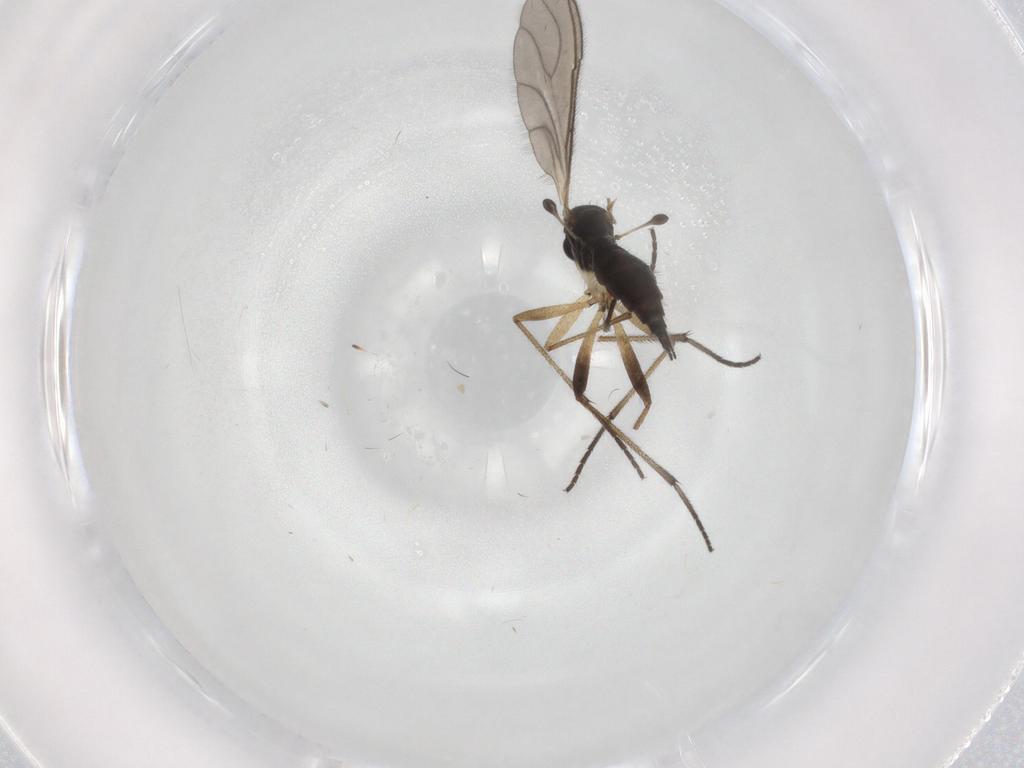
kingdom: Animalia
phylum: Arthropoda
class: Insecta
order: Diptera
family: Sciaridae
